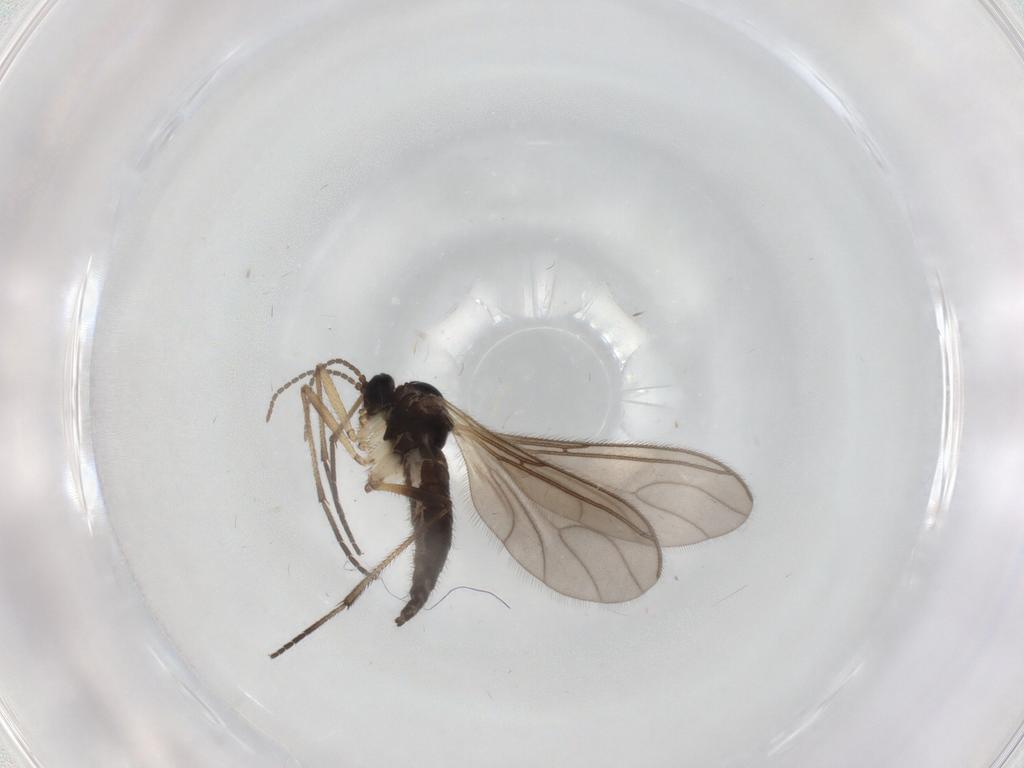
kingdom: Animalia
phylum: Arthropoda
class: Insecta
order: Diptera
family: Sciaridae
